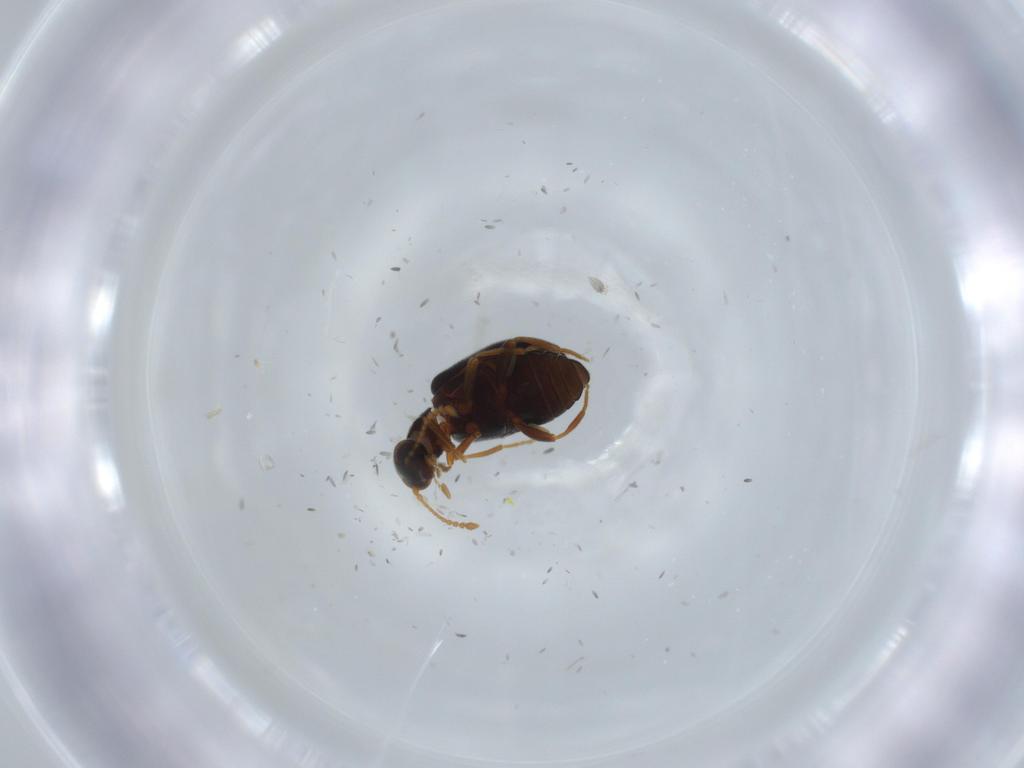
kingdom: Animalia
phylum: Arthropoda
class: Insecta
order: Coleoptera
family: Aderidae
